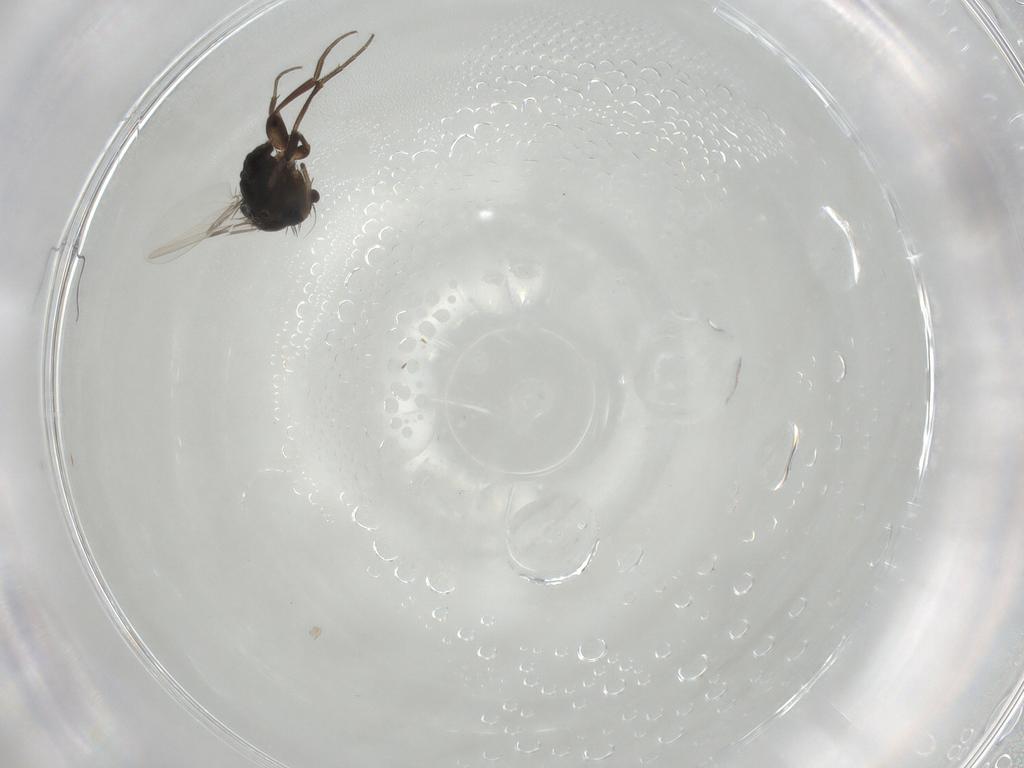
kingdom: Animalia
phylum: Arthropoda
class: Insecta
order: Diptera
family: Phoridae
